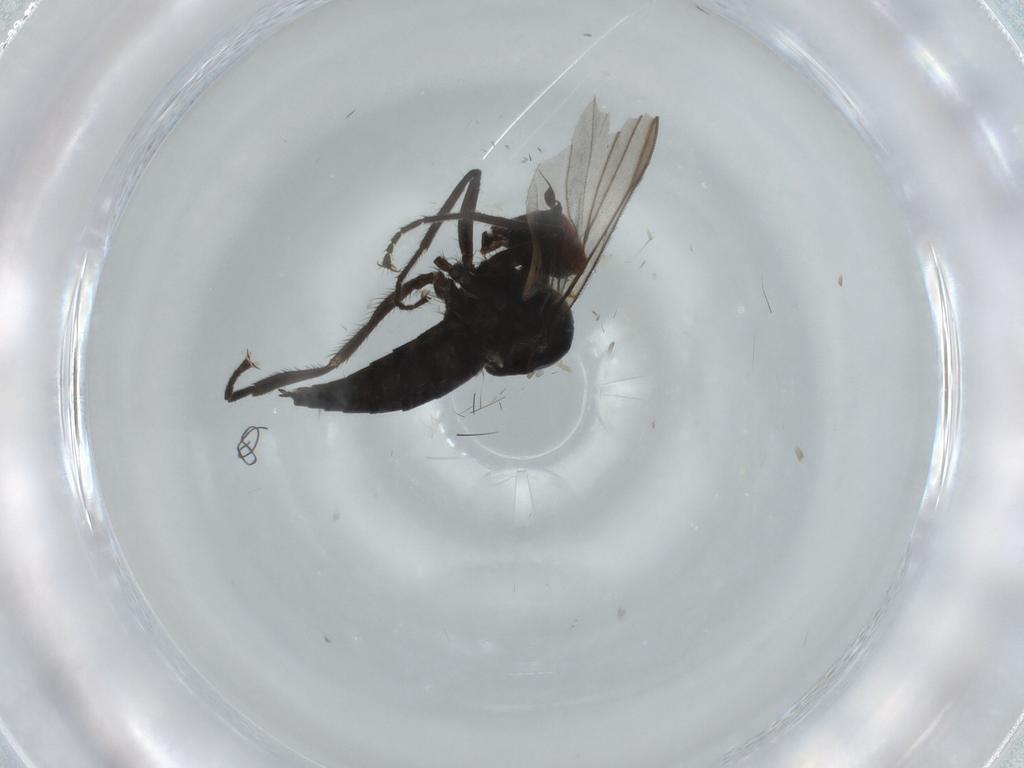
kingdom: Animalia
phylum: Arthropoda
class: Insecta
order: Diptera
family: Hybotidae
